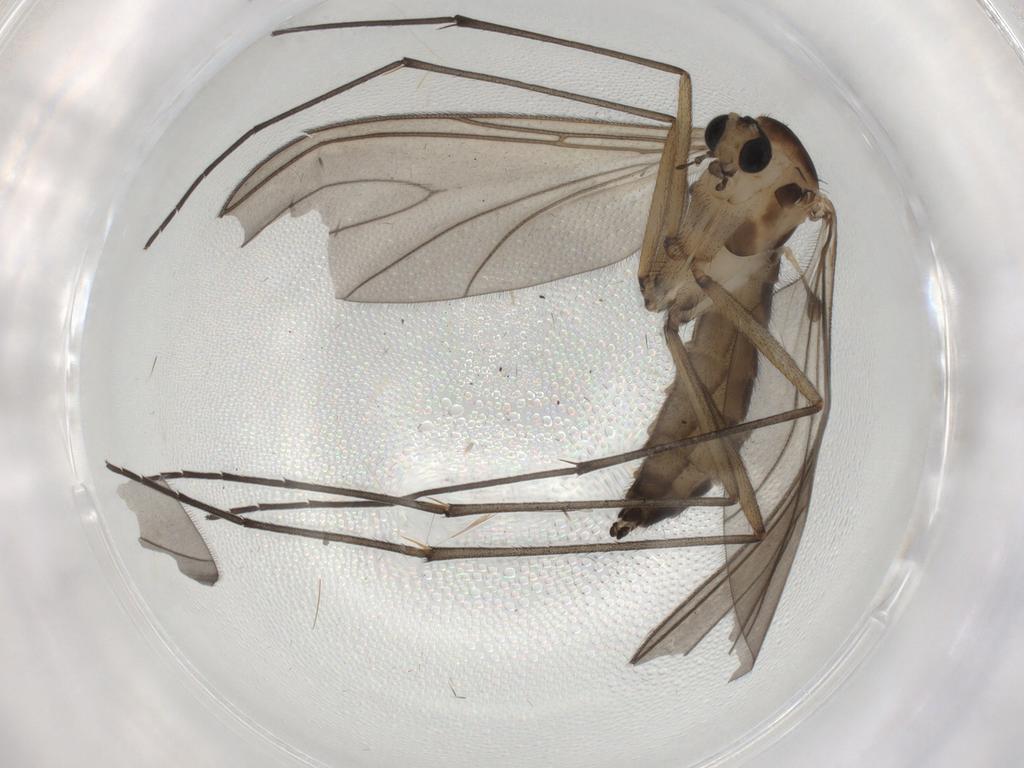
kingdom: Animalia
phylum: Arthropoda
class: Insecta
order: Diptera
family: Sciaridae
